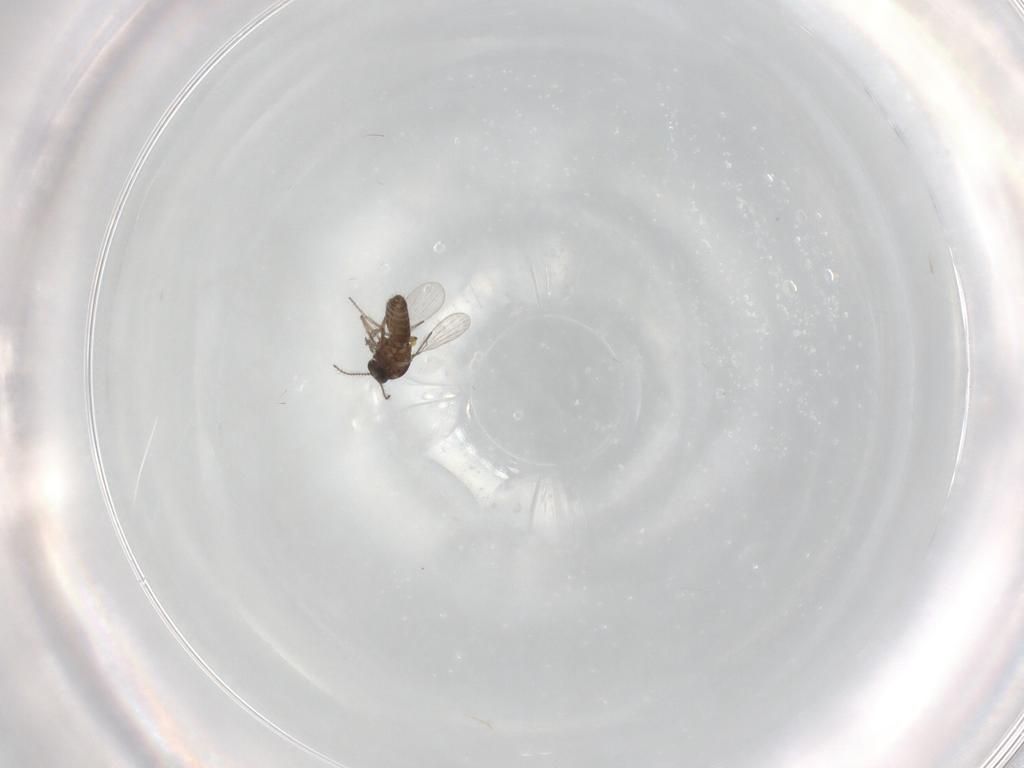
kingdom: Animalia
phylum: Arthropoda
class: Insecta
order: Diptera
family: Ceratopogonidae
